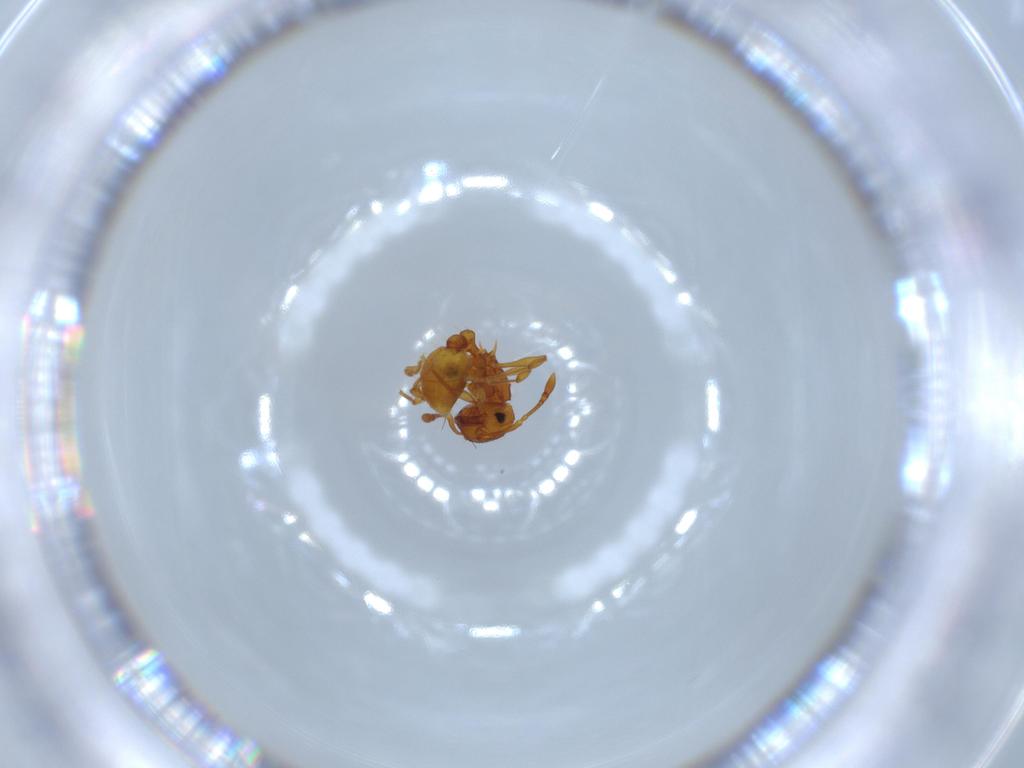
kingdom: Animalia
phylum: Arthropoda
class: Insecta
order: Hymenoptera
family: Formicidae
